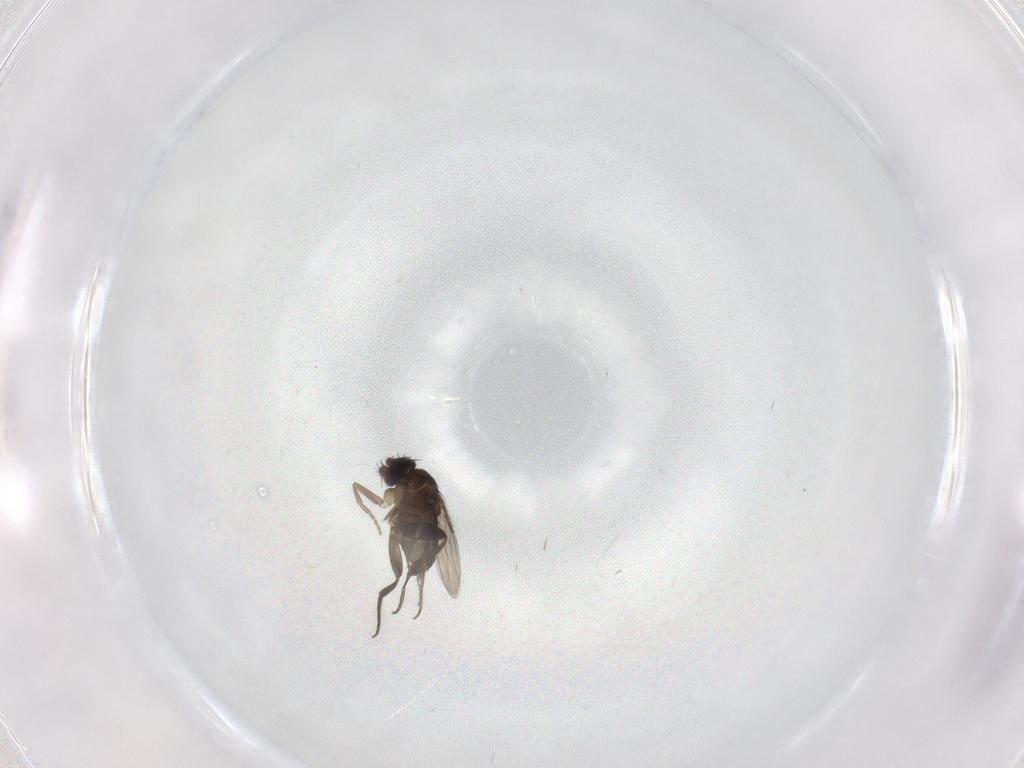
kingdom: Animalia
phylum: Arthropoda
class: Insecta
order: Diptera
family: Phoridae
